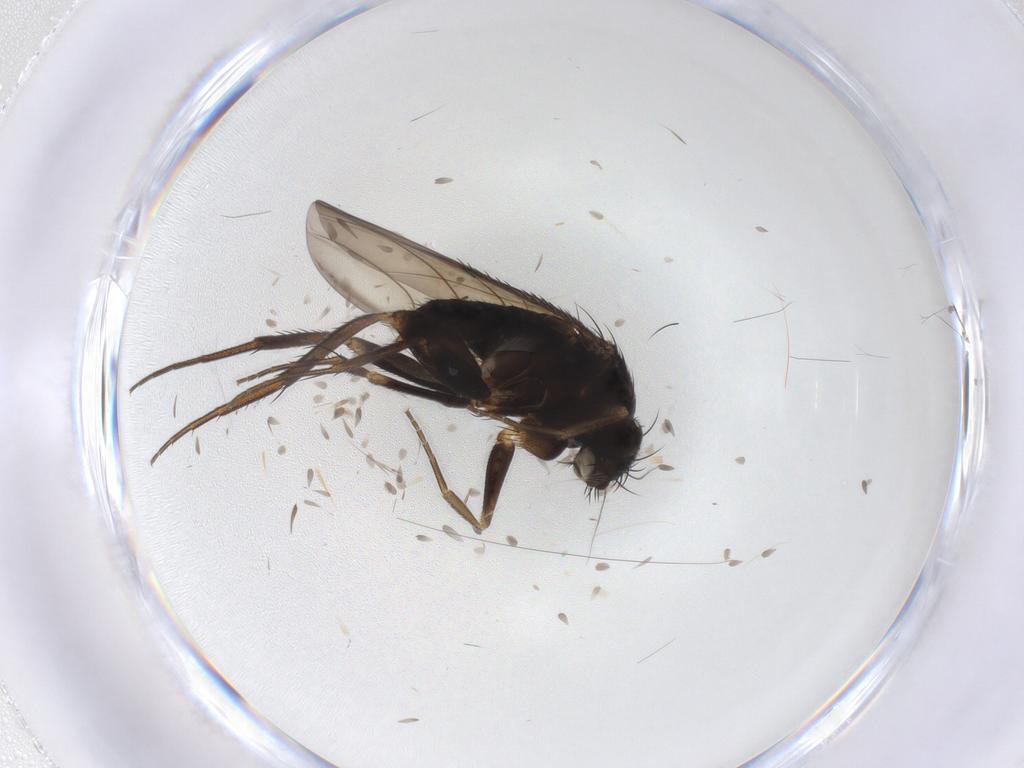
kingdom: Animalia
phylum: Arthropoda
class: Insecta
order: Diptera
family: Phoridae
